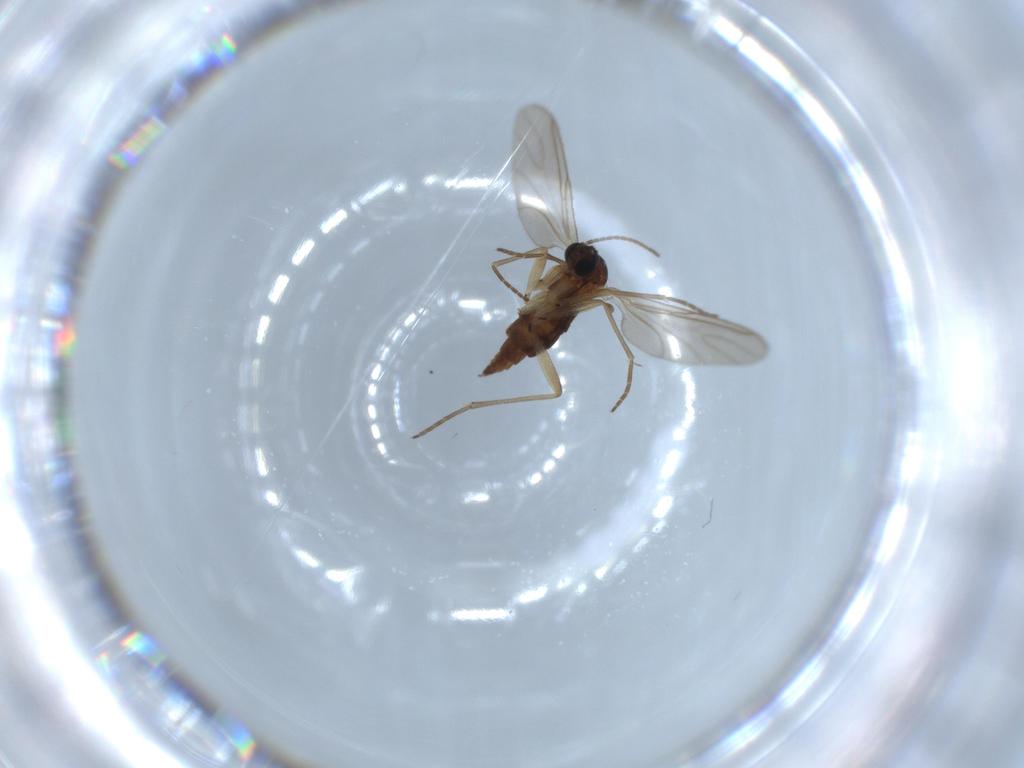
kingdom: Animalia
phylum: Arthropoda
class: Insecta
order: Diptera
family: Sciaridae
